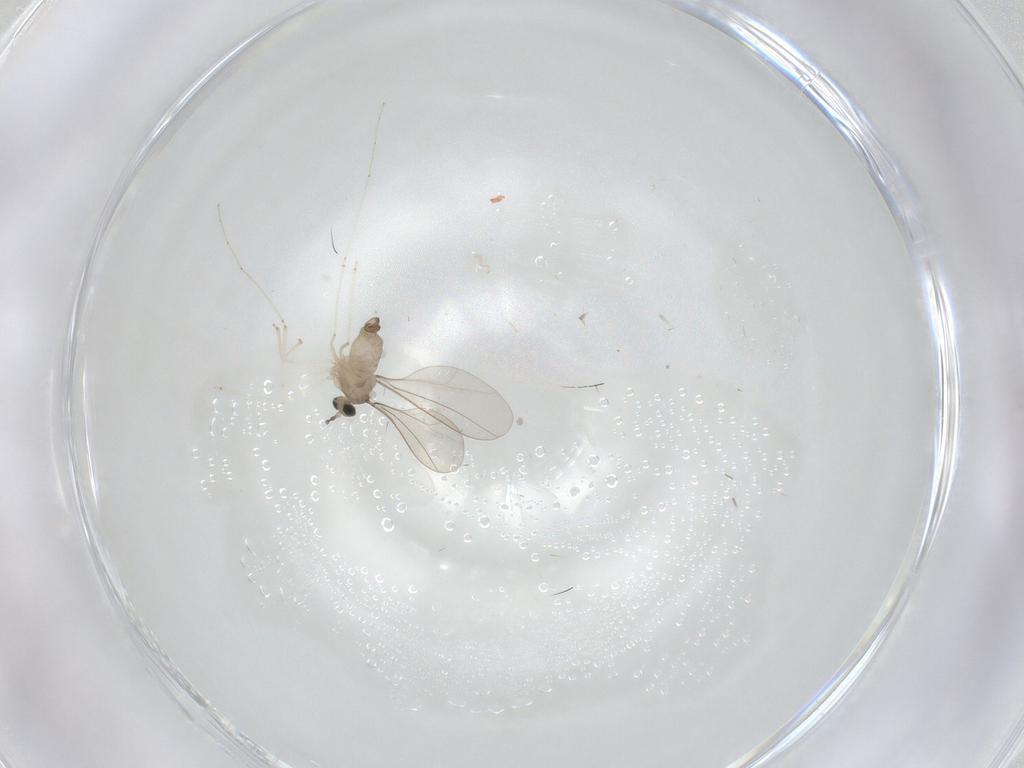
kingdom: Animalia
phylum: Arthropoda
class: Insecta
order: Diptera
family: Cecidomyiidae
